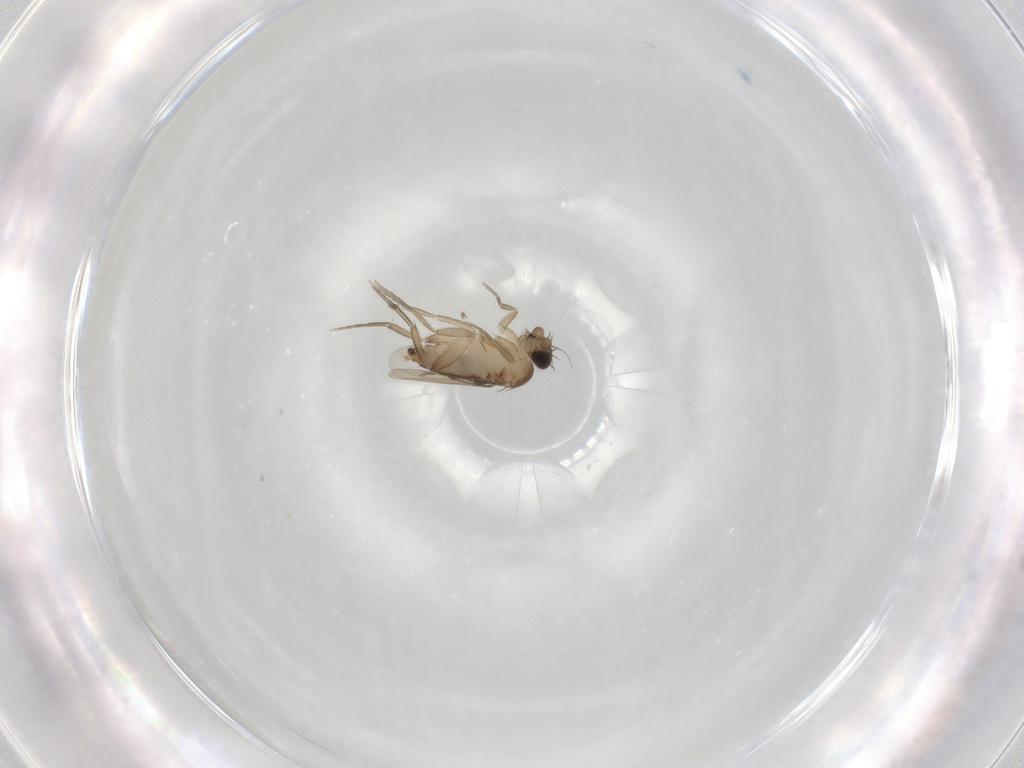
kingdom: Animalia
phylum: Arthropoda
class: Insecta
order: Diptera
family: Phoridae
